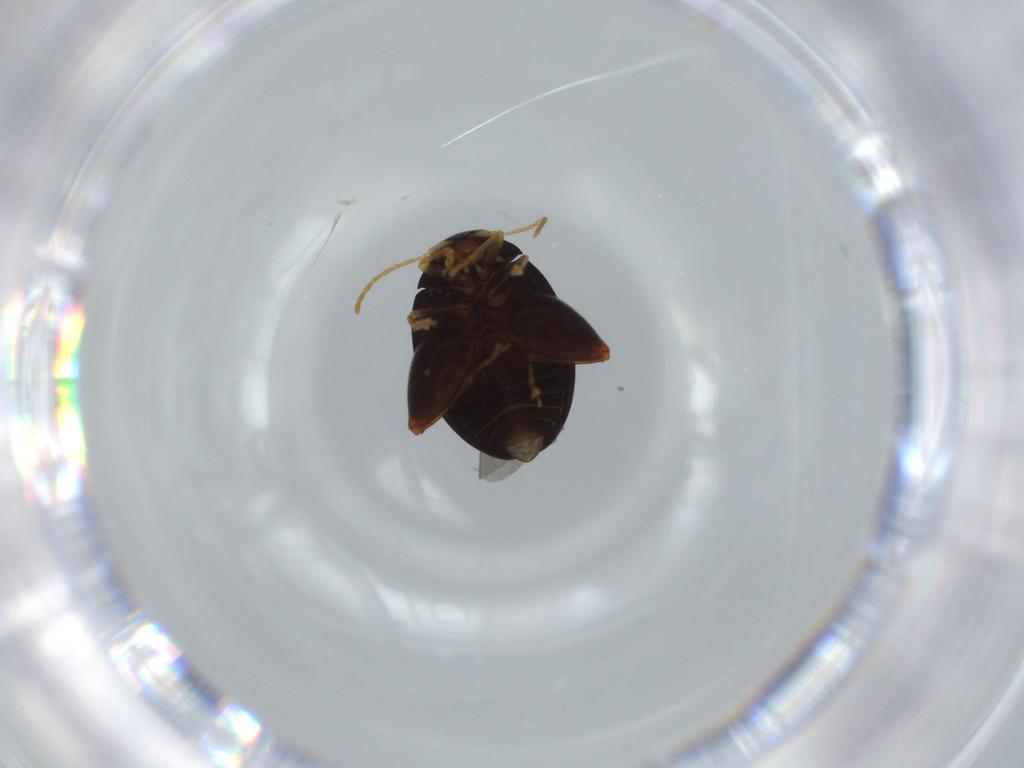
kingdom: Animalia
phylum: Arthropoda
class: Insecta
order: Coleoptera
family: Chrysomelidae
